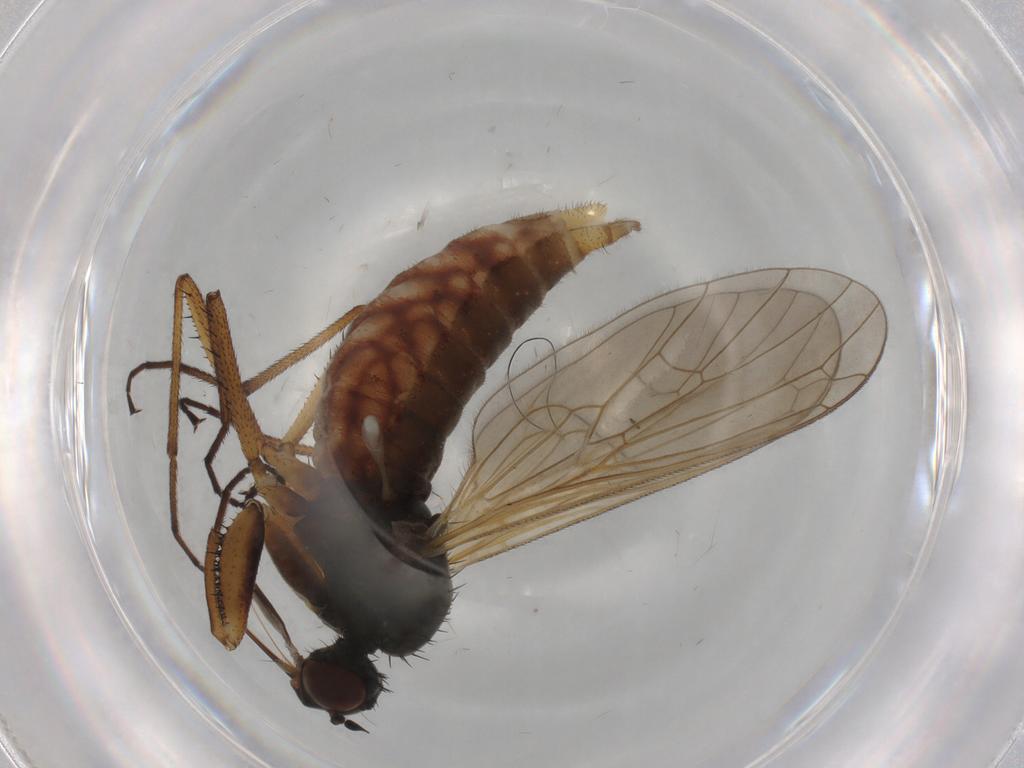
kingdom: Animalia
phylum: Arthropoda
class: Insecta
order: Diptera
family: Empididae
